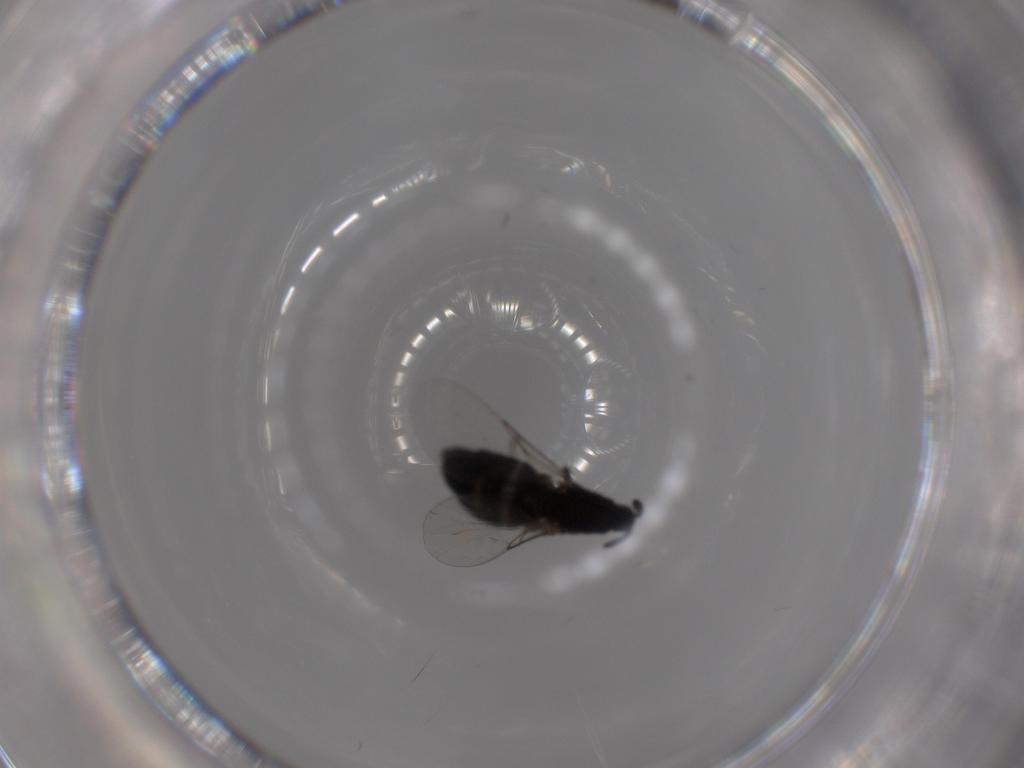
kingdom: Animalia
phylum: Arthropoda
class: Insecta
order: Diptera
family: Scatopsidae
